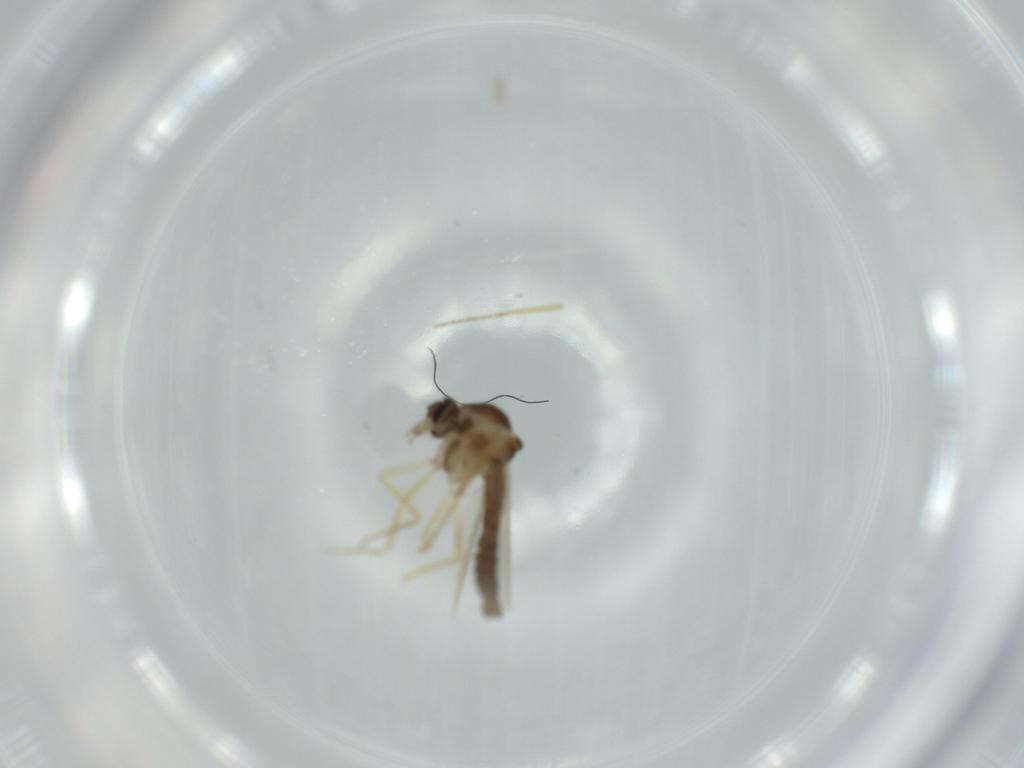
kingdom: Animalia
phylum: Arthropoda
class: Insecta
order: Diptera
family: Ceratopogonidae
